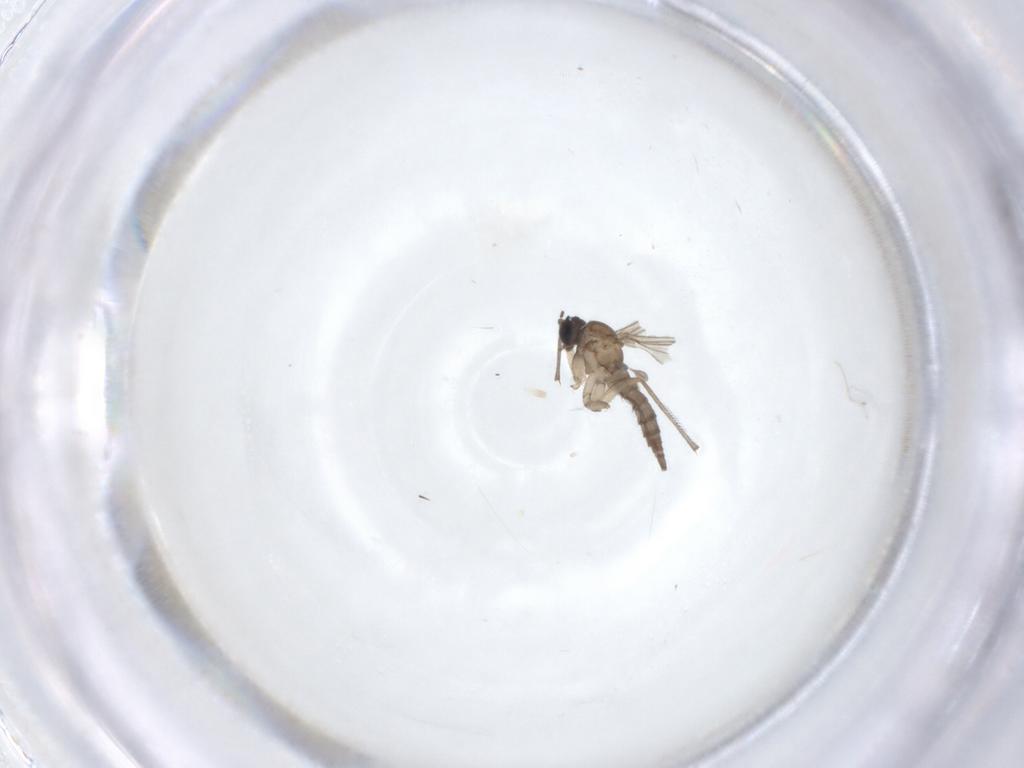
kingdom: Animalia
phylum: Arthropoda
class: Insecta
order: Diptera
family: Sciaridae
